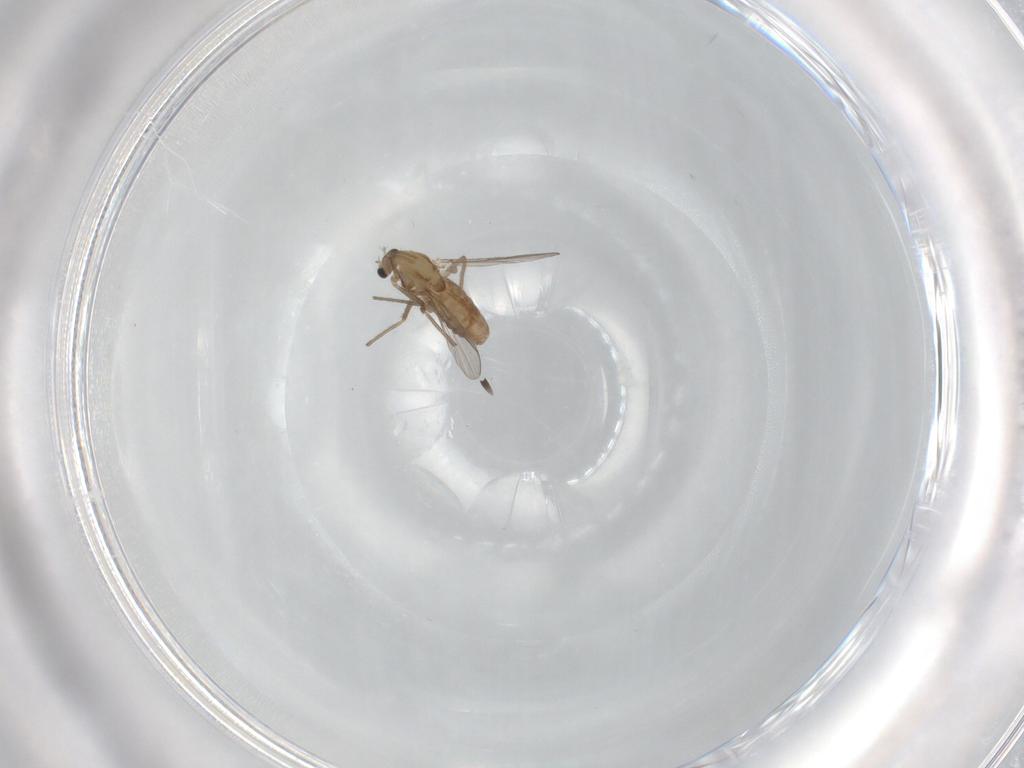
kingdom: Animalia
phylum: Arthropoda
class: Insecta
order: Diptera
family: Chironomidae
